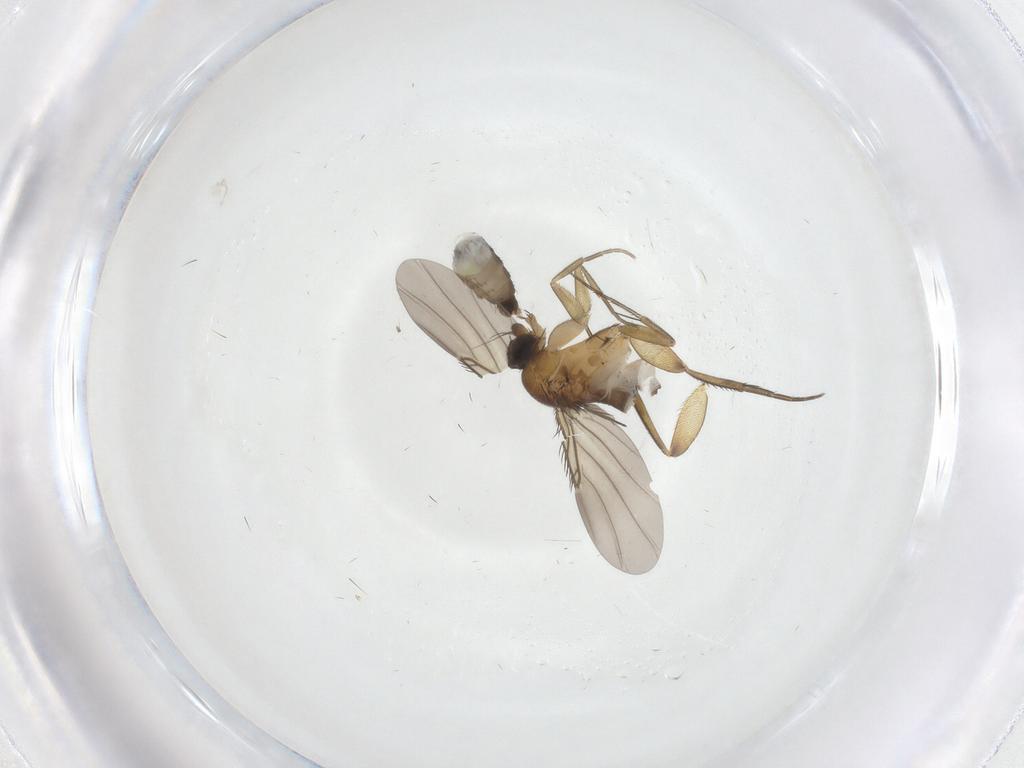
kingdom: Animalia
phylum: Arthropoda
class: Insecta
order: Diptera
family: Phoridae
